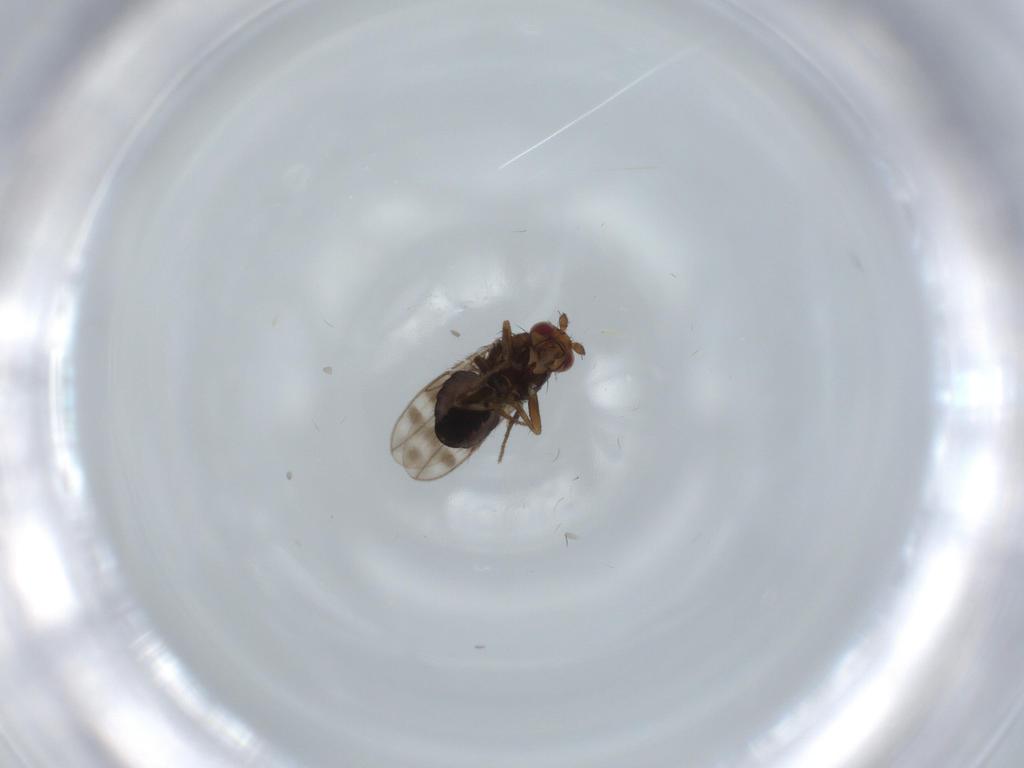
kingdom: Animalia
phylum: Arthropoda
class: Insecta
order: Diptera
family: Sphaeroceridae
